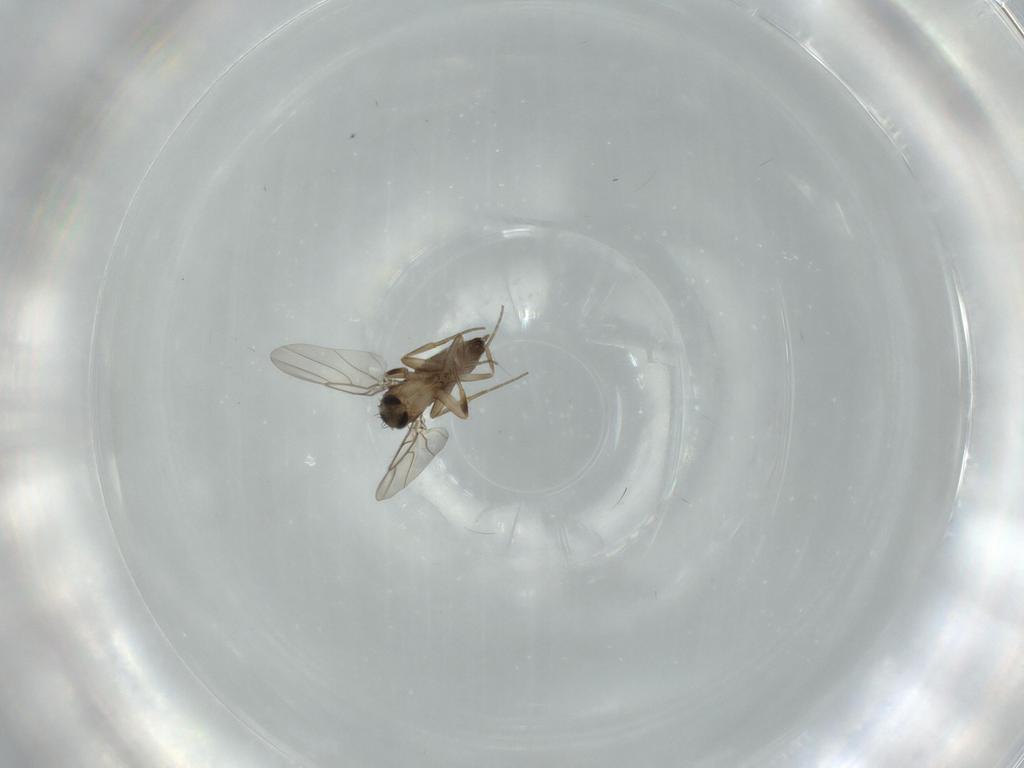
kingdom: Animalia
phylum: Arthropoda
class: Insecta
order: Diptera
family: Phoridae
